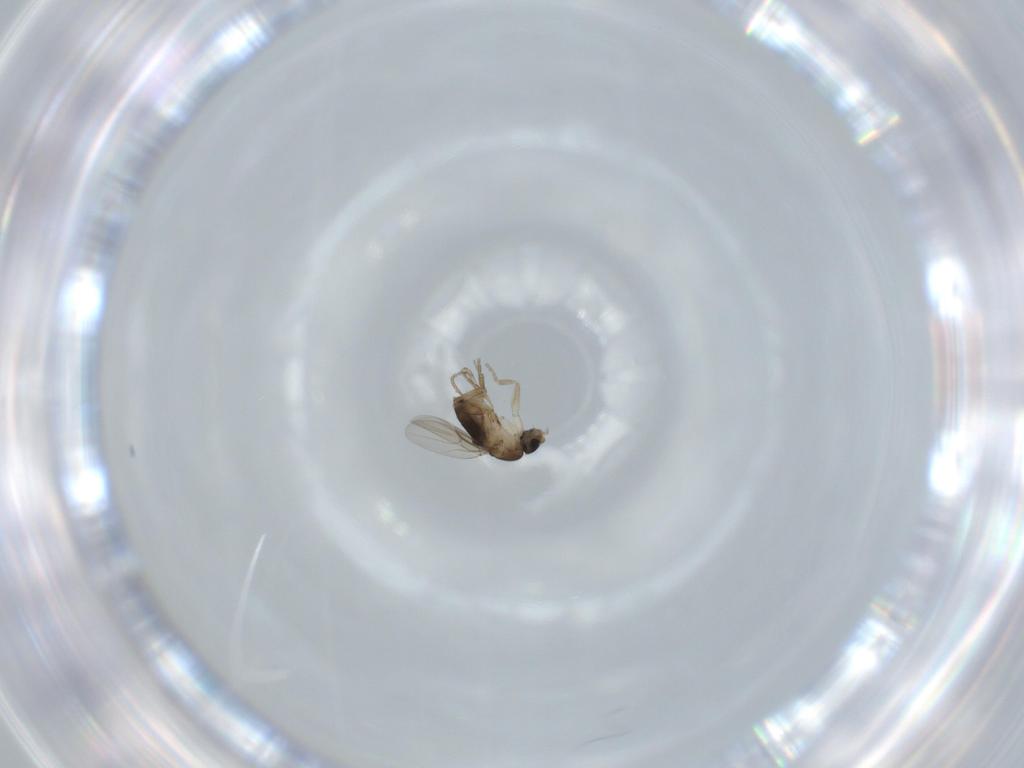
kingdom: Animalia
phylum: Arthropoda
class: Insecta
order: Diptera
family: Phoridae
